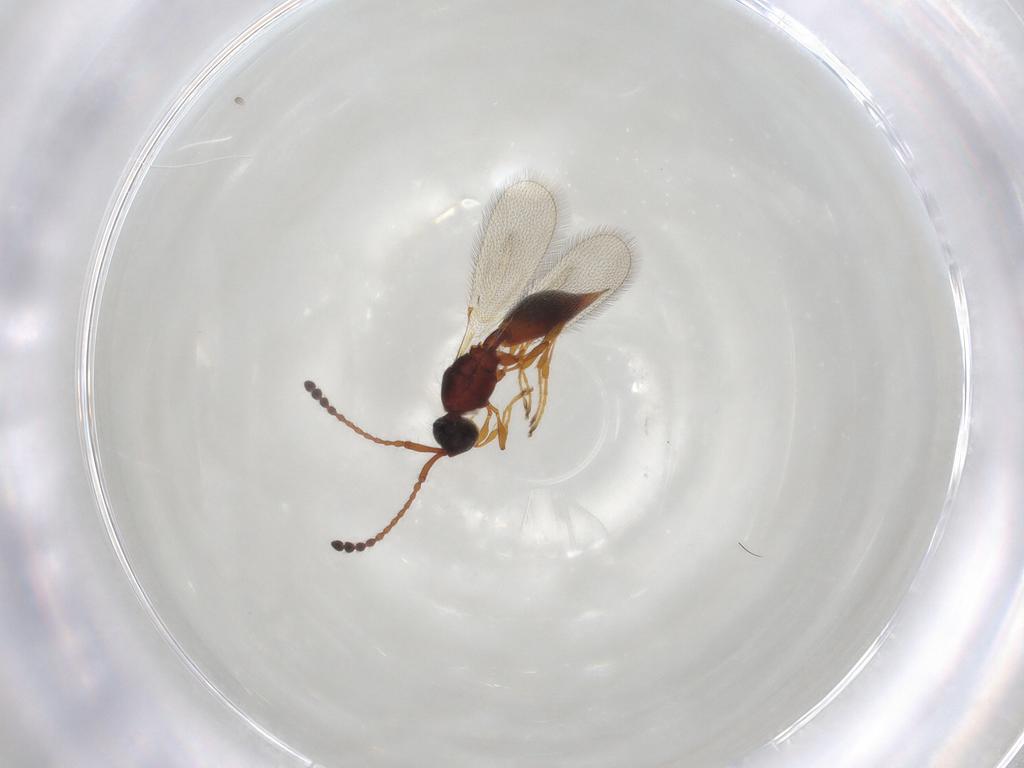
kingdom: Animalia
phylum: Arthropoda
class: Insecta
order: Hymenoptera
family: Diapriidae
